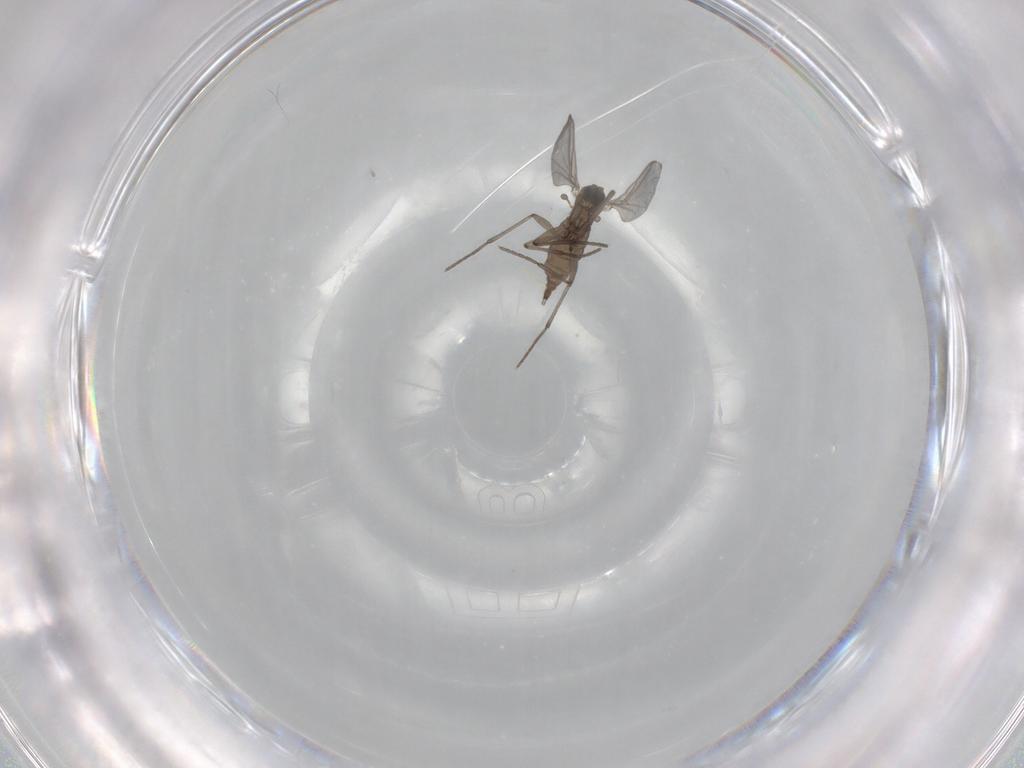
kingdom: Animalia
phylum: Arthropoda
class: Insecta
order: Diptera
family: Sciaridae
